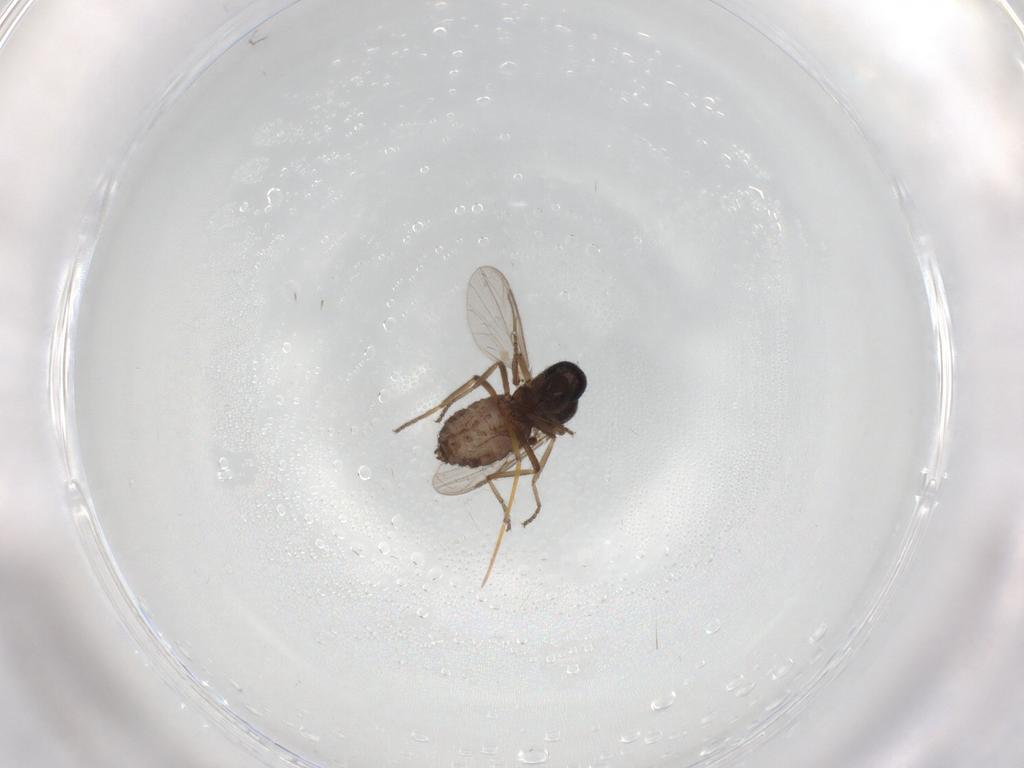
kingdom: Animalia
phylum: Arthropoda
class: Insecta
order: Diptera
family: Ceratopogonidae
